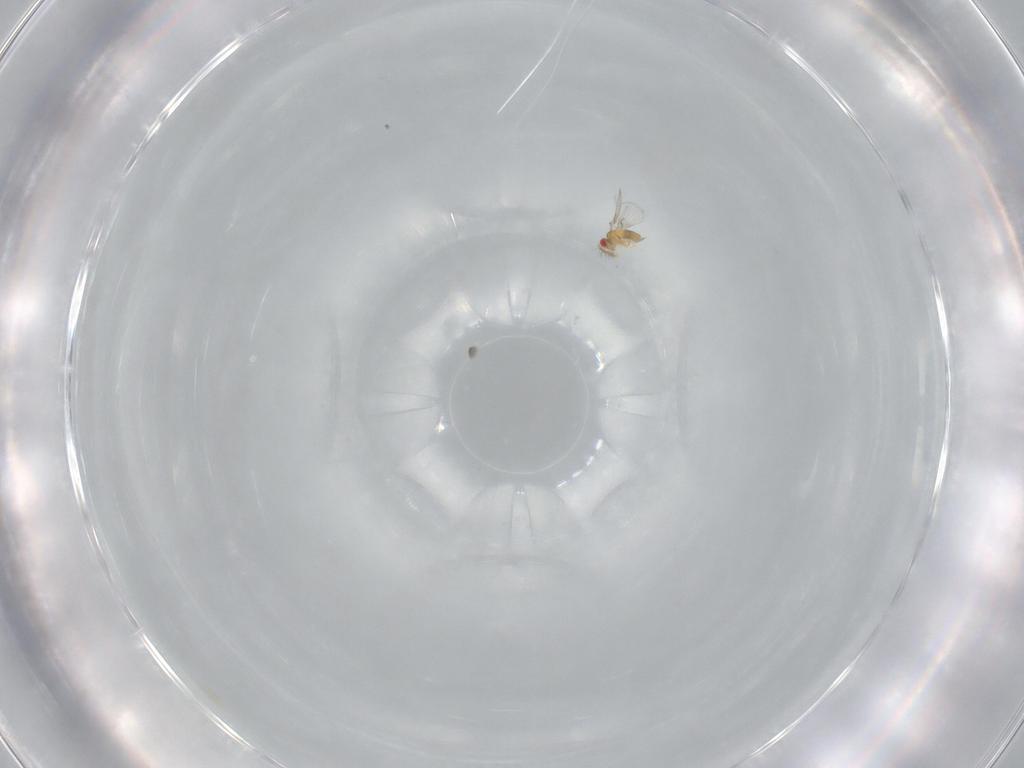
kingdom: Animalia
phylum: Arthropoda
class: Insecta
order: Hymenoptera
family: Trichogrammatidae
